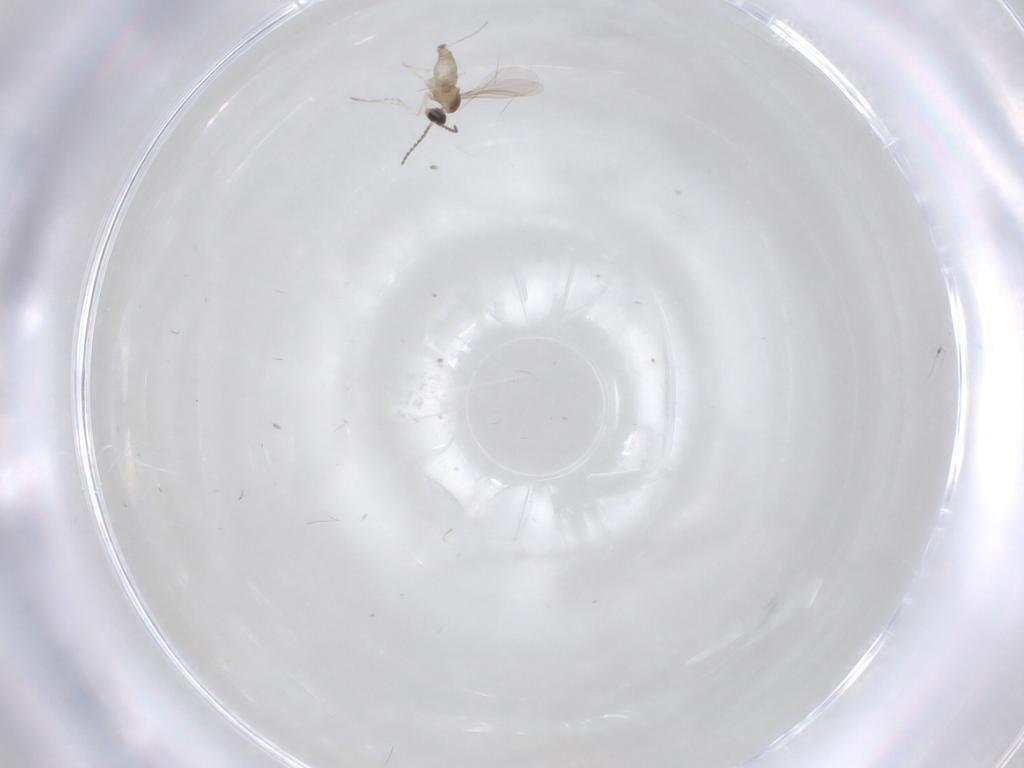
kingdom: Animalia
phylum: Arthropoda
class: Insecta
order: Diptera
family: Cecidomyiidae
